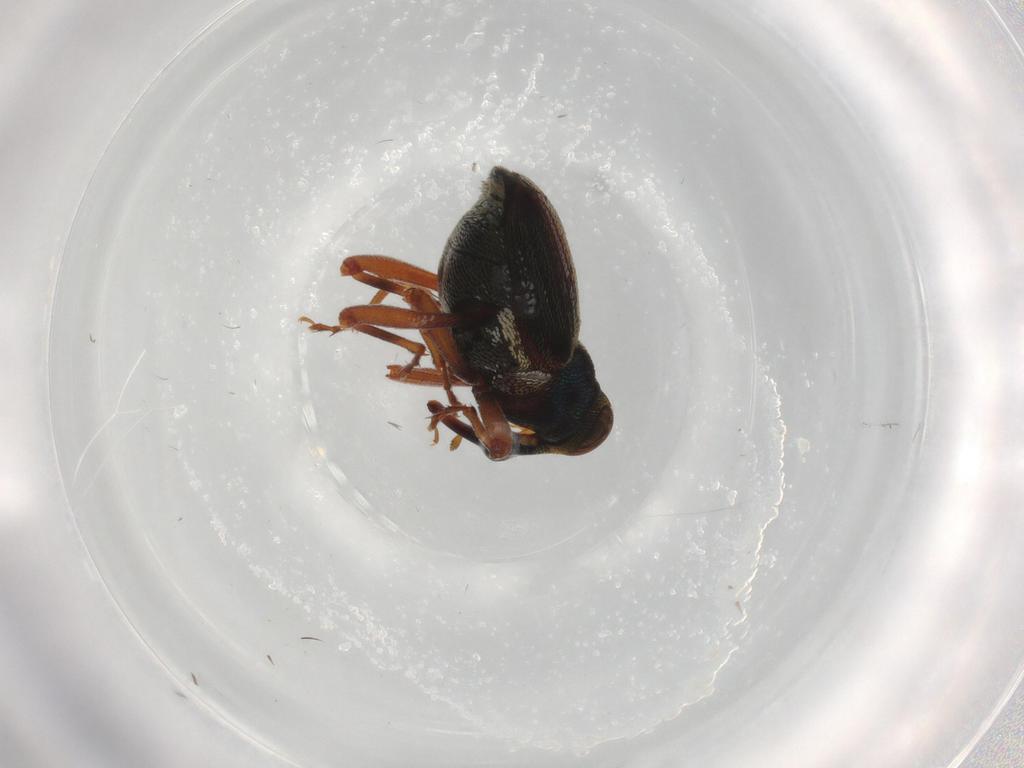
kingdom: Animalia
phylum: Arthropoda
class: Insecta
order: Coleoptera
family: Curculionidae
